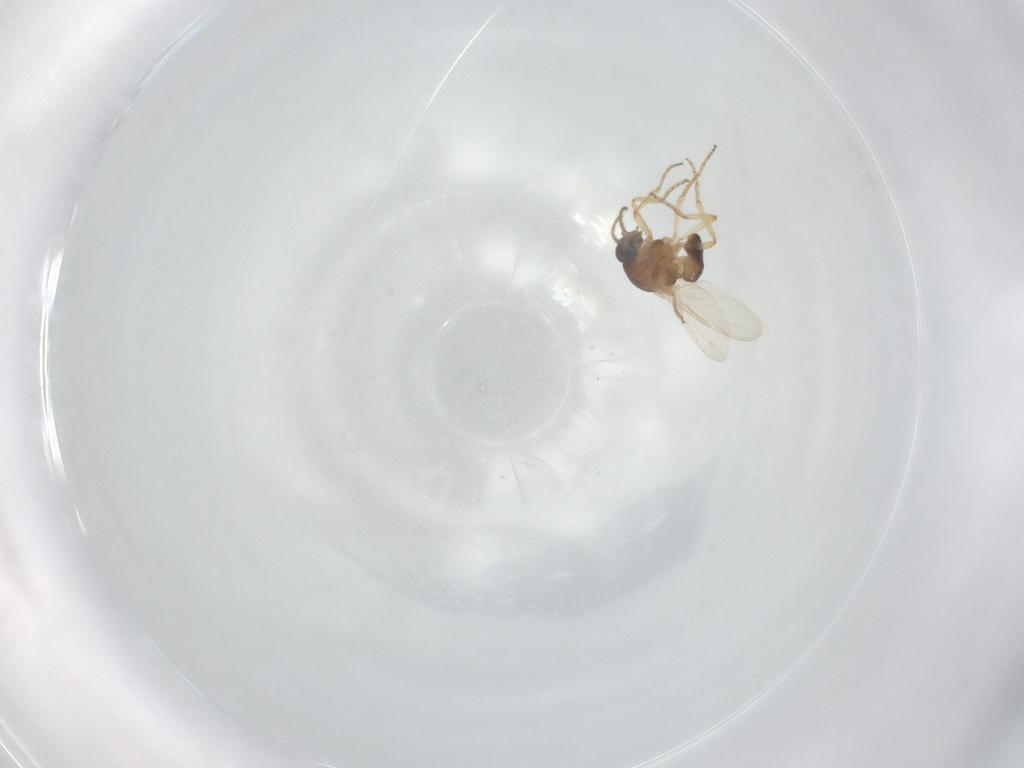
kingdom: Animalia
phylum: Arthropoda
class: Insecta
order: Diptera
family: Ceratopogonidae
